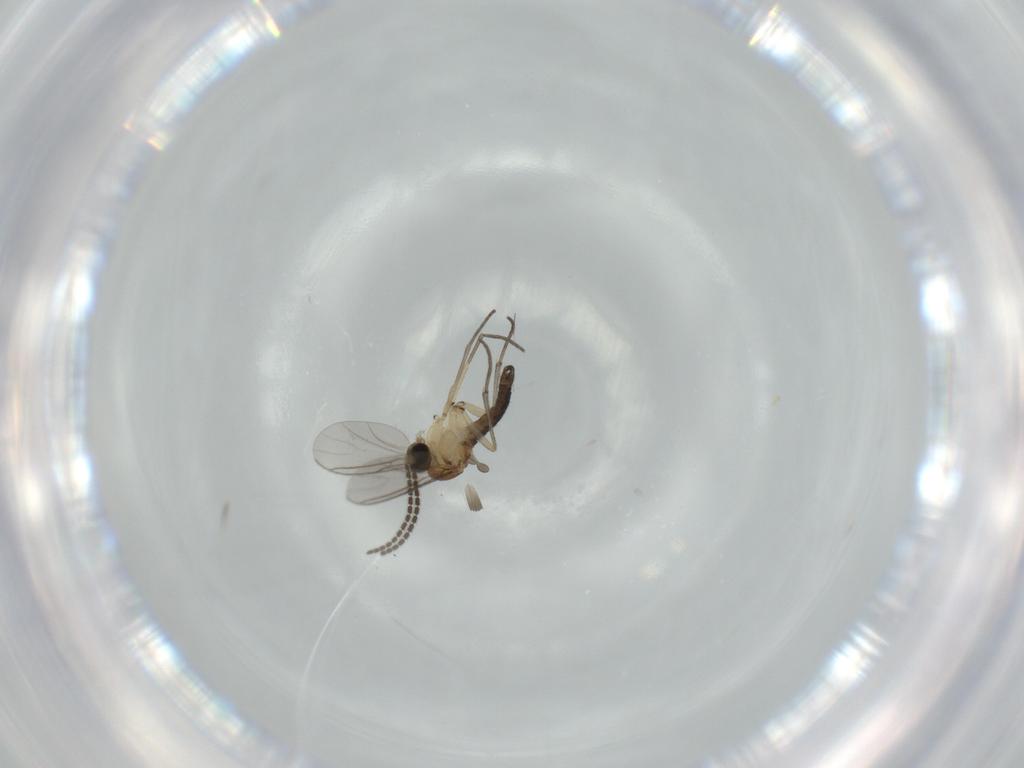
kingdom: Animalia
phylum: Arthropoda
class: Insecta
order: Diptera
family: Sciaridae
